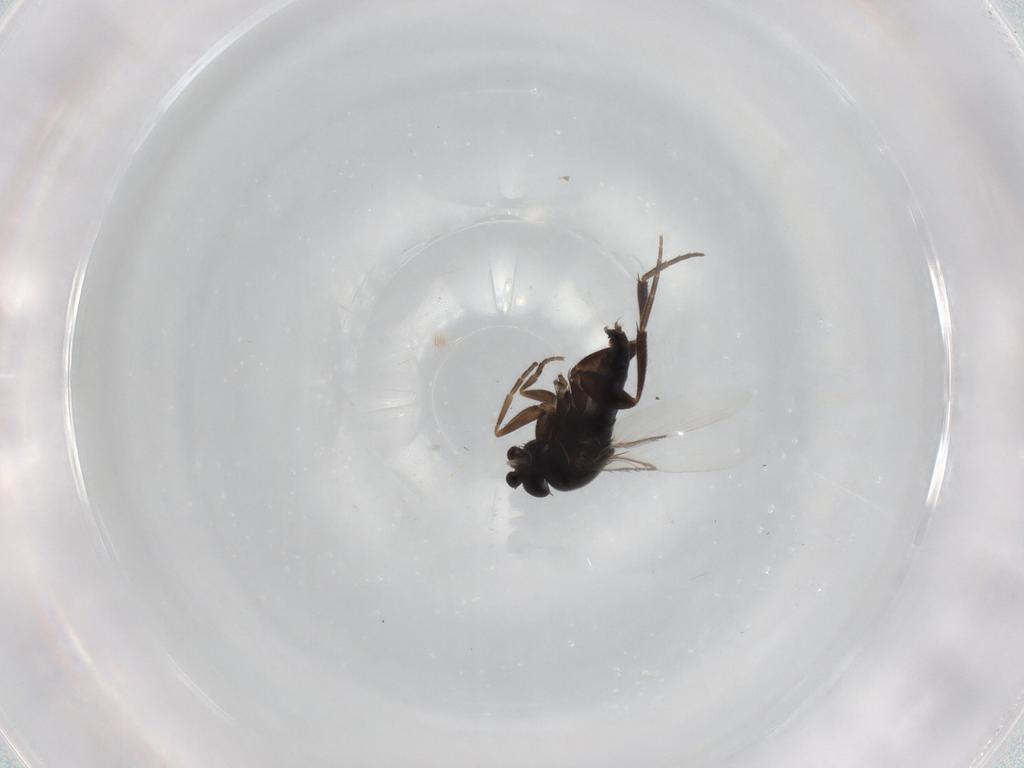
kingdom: Animalia
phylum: Arthropoda
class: Insecta
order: Diptera
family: Phoridae
